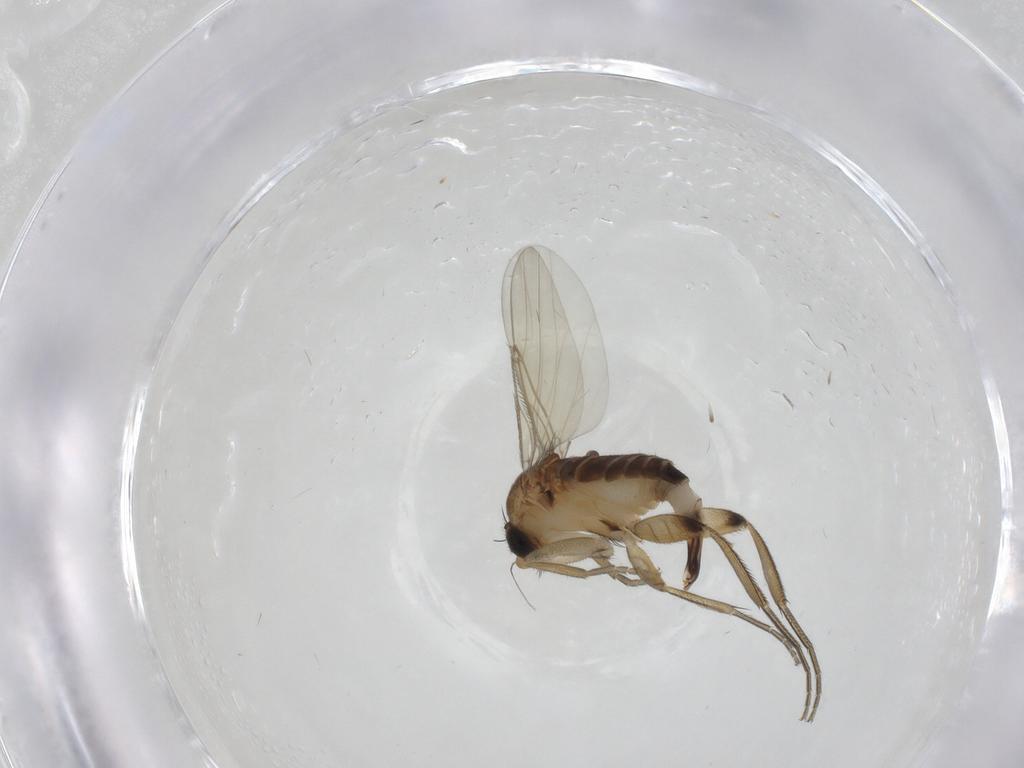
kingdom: Animalia
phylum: Arthropoda
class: Insecta
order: Diptera
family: Phoridae
